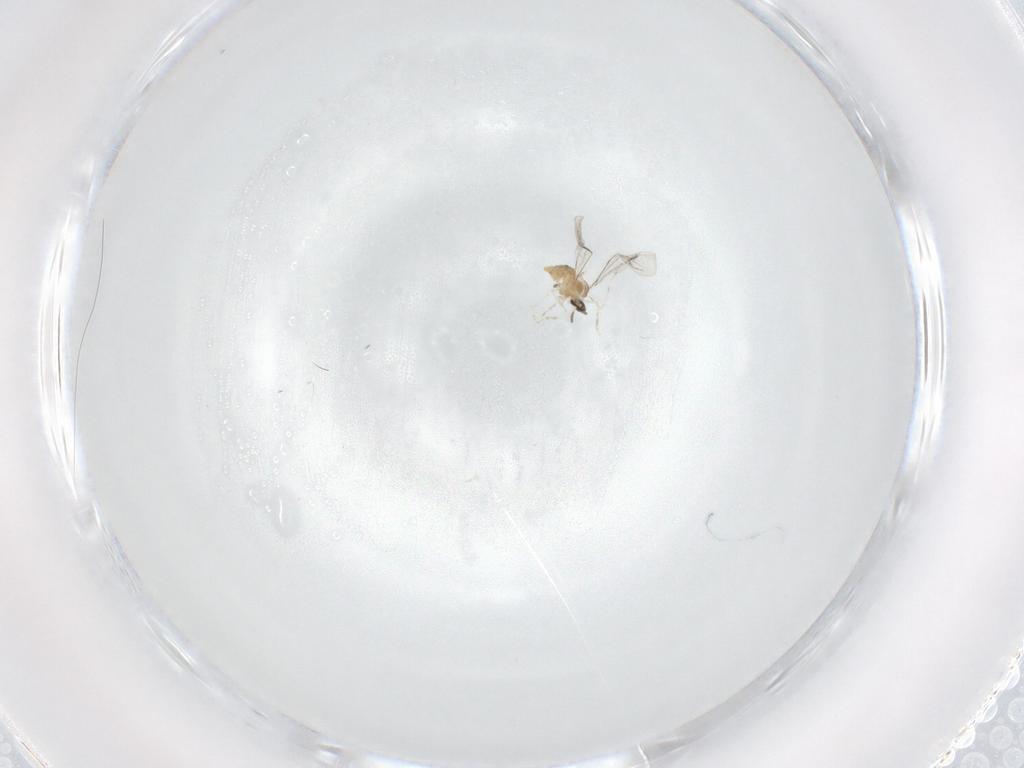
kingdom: Animalia
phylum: Arthropoda
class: Insecta
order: Diptera
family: Cecidomyiidae
